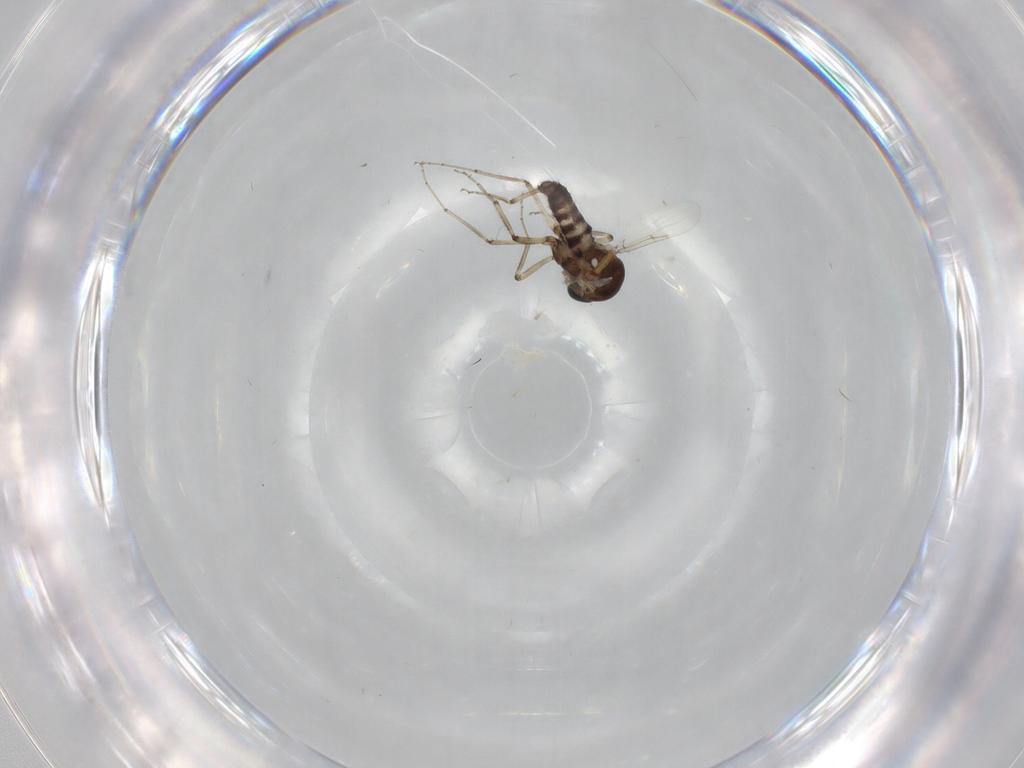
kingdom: Animalia
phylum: Arthropoda
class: Insecta
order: Diptera
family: Ceratopogonidae
